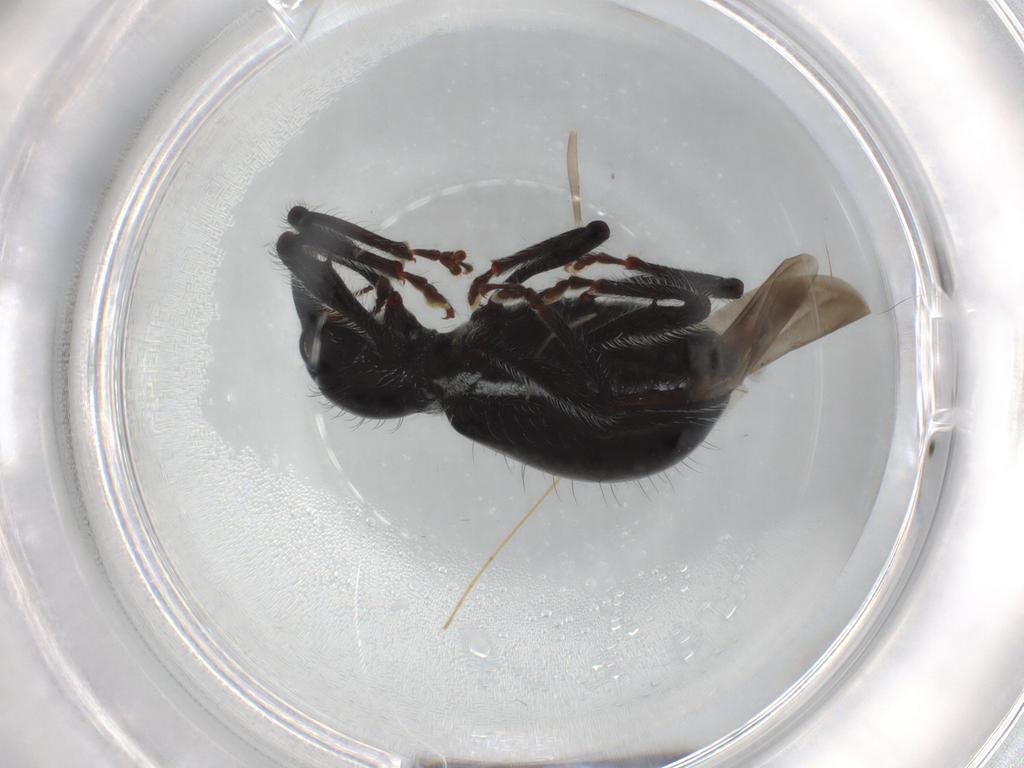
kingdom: Animalia
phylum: Arthropoda
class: Insecta
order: Coleoptera
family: Curculionidae
